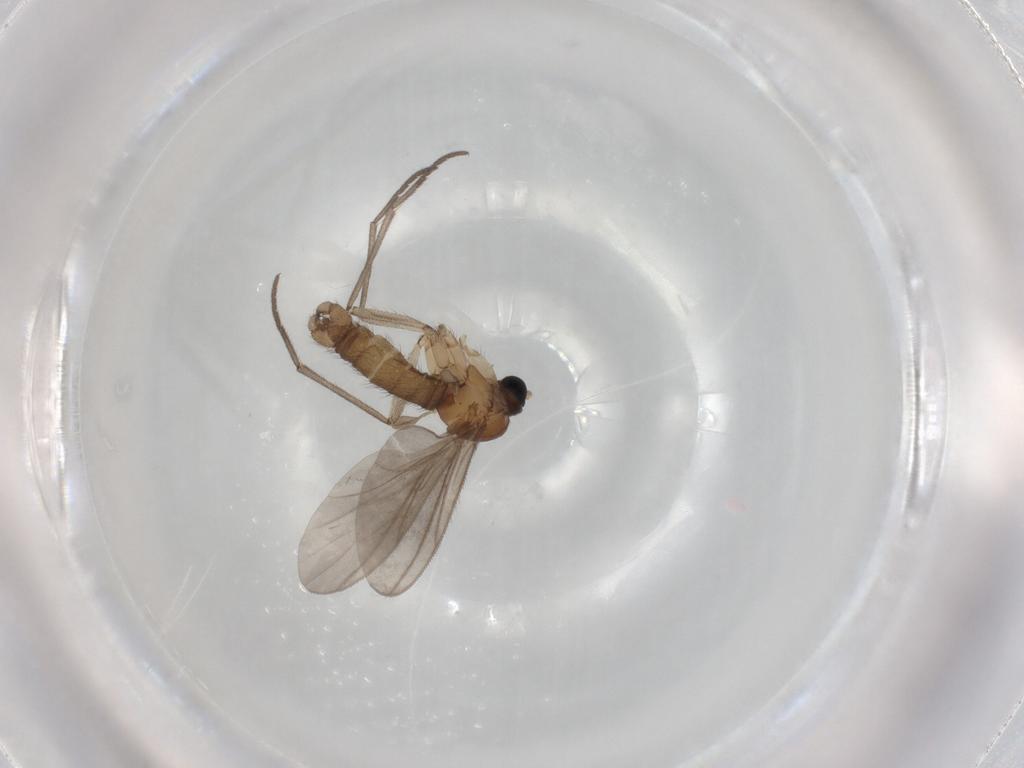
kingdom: Animalia
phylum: Arthropoda
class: Insecta
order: Diptera
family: Sciaridae
